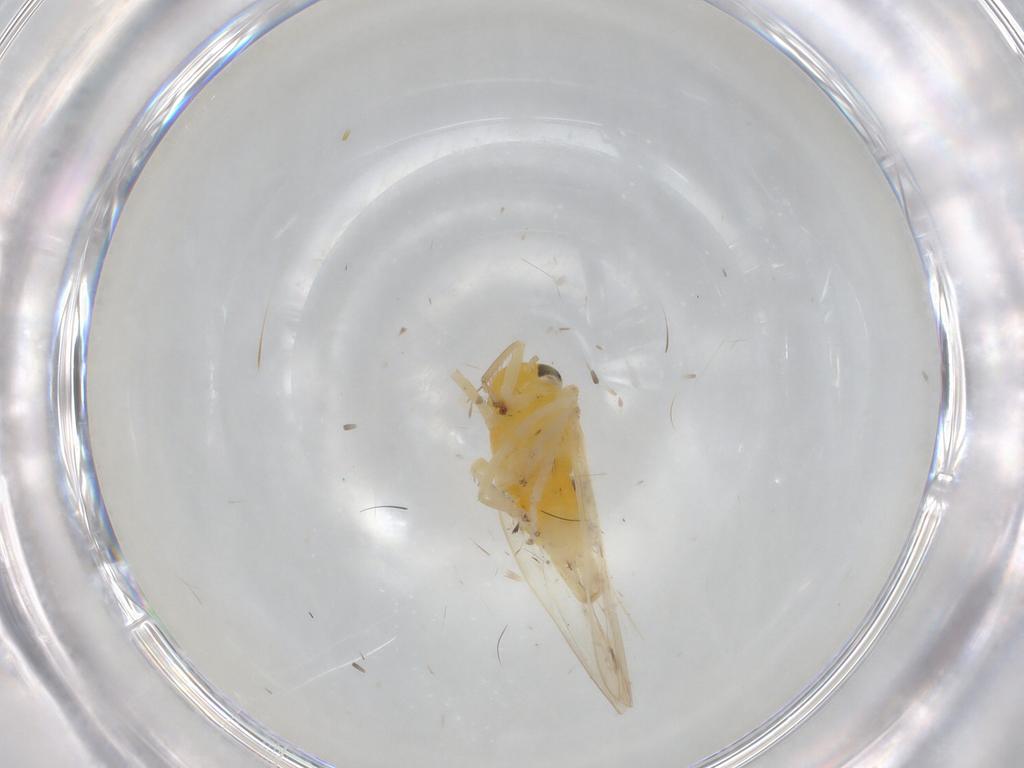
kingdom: Animalia
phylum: Arthropoda
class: Insecta
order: Hemiptera
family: Cicadellidae
